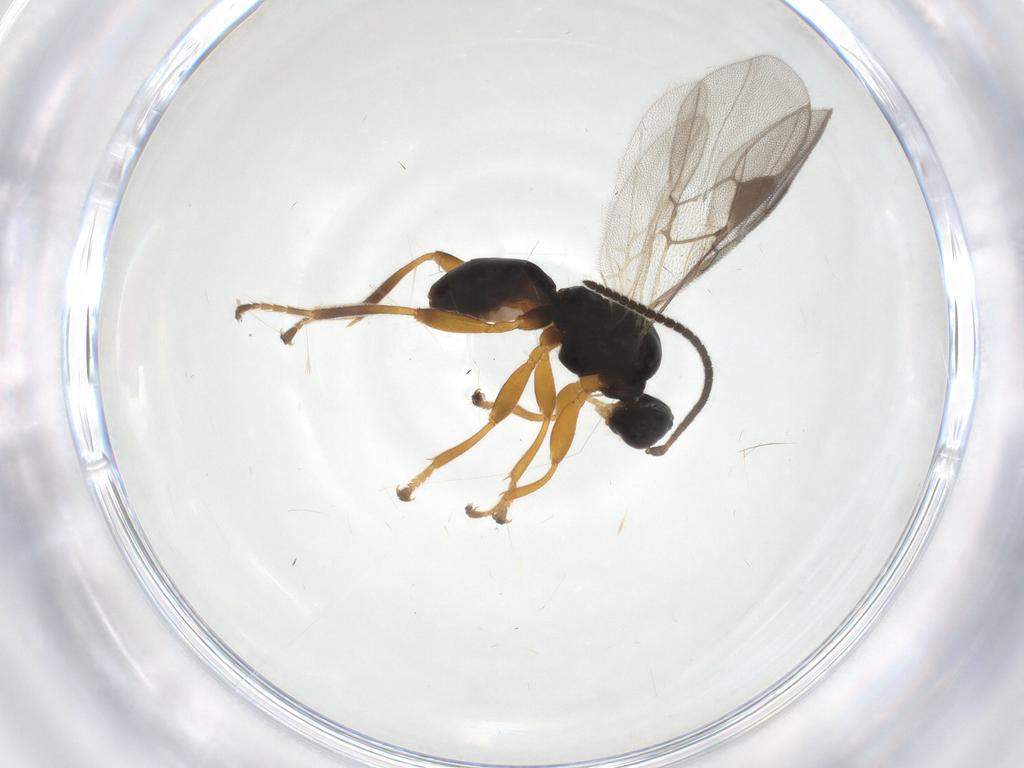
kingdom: Animalia
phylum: Arthropoda
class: Insecta
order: Hymenoptera
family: Braconidae
